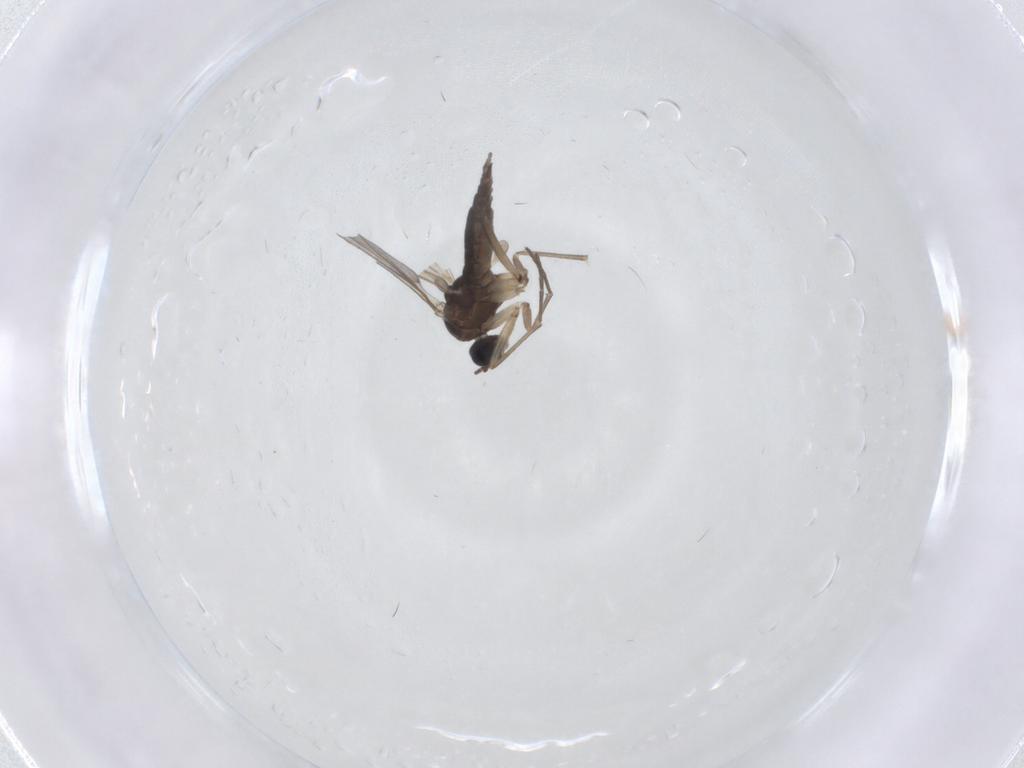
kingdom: Animalia
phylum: Arthropoda
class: Insecta
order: Diptera
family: Sciaridae
